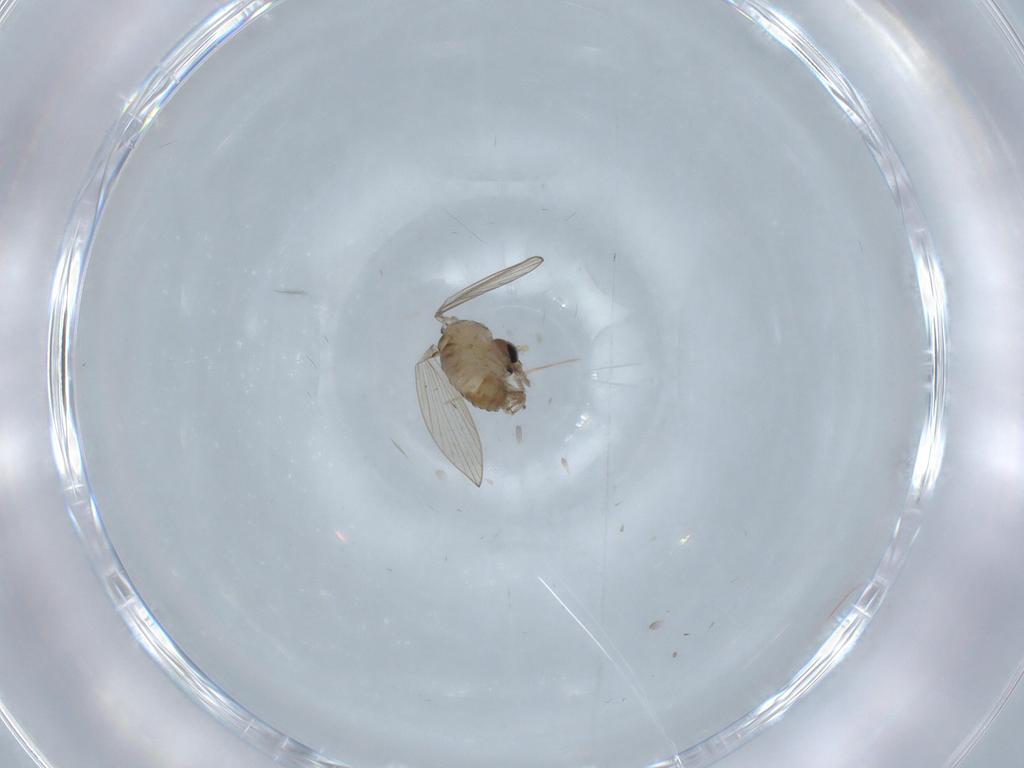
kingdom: Animalia
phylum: Arthropoda
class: Insecta
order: Diptera
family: Psychodidae
